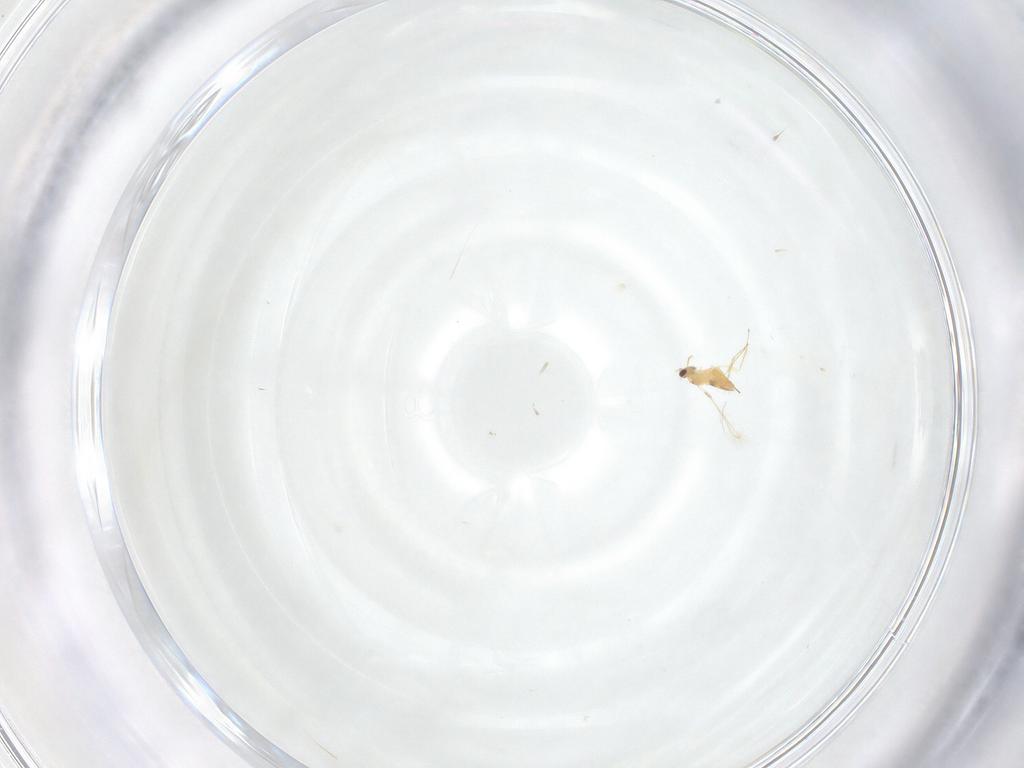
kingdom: Animalia
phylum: Arthropoda
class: Insecta
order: Hymenoptera
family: Mymaridae
